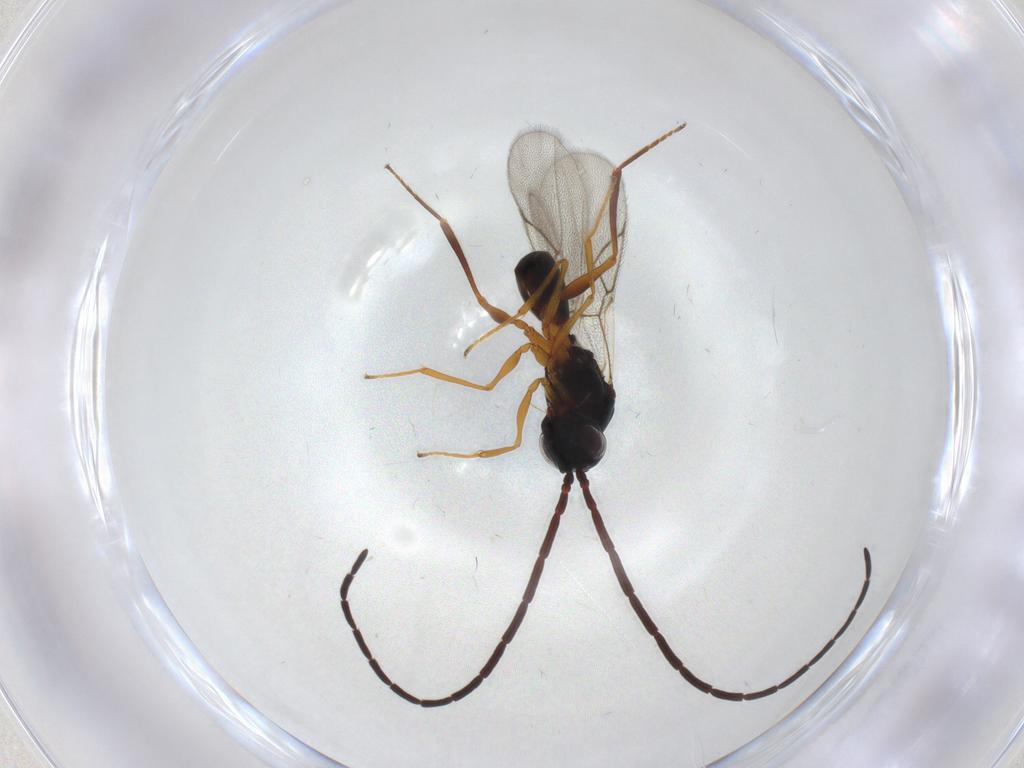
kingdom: Animalia
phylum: Arthropoda
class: Insecta
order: Hymenoptera
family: Figitidae
